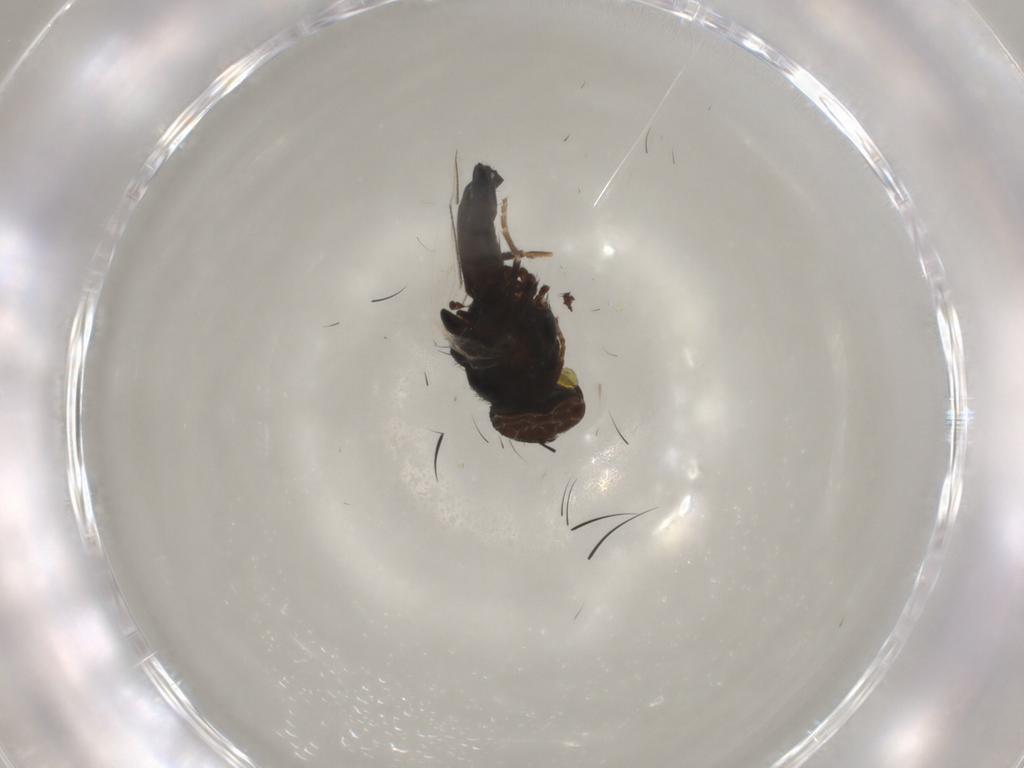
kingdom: Animalia
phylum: Arthropoda
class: Insecta
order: Diptera
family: Milichiidae
